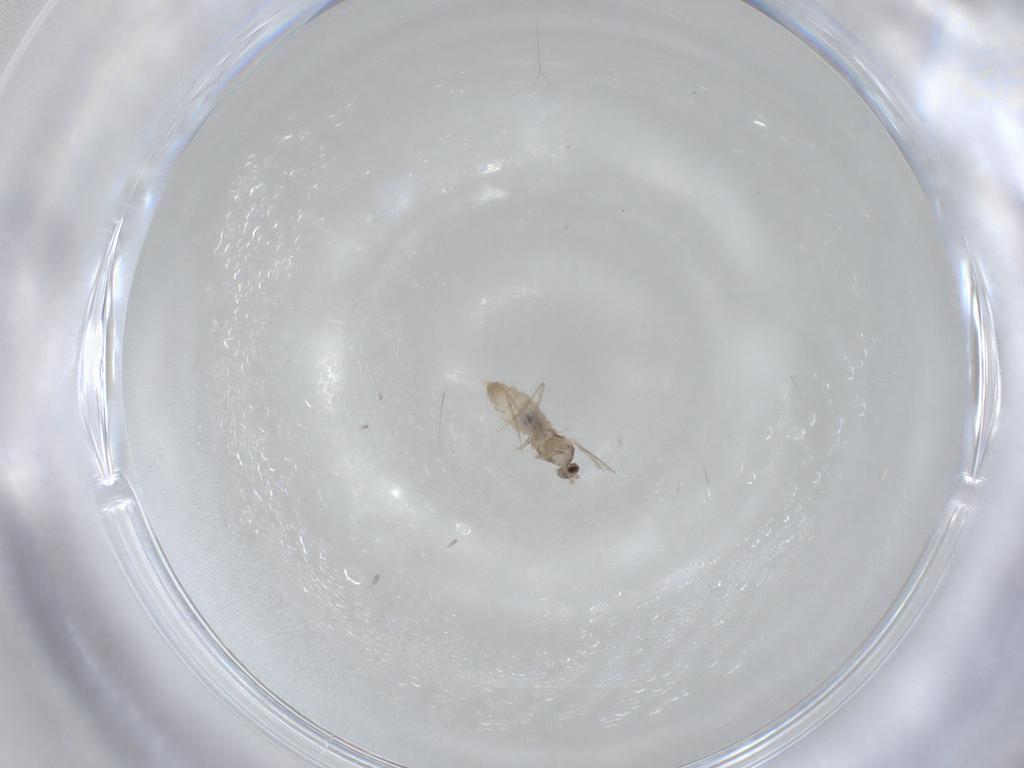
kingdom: Animalia
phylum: Arthropoda
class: Insecta
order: Diptera
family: Cecidomyiidae
